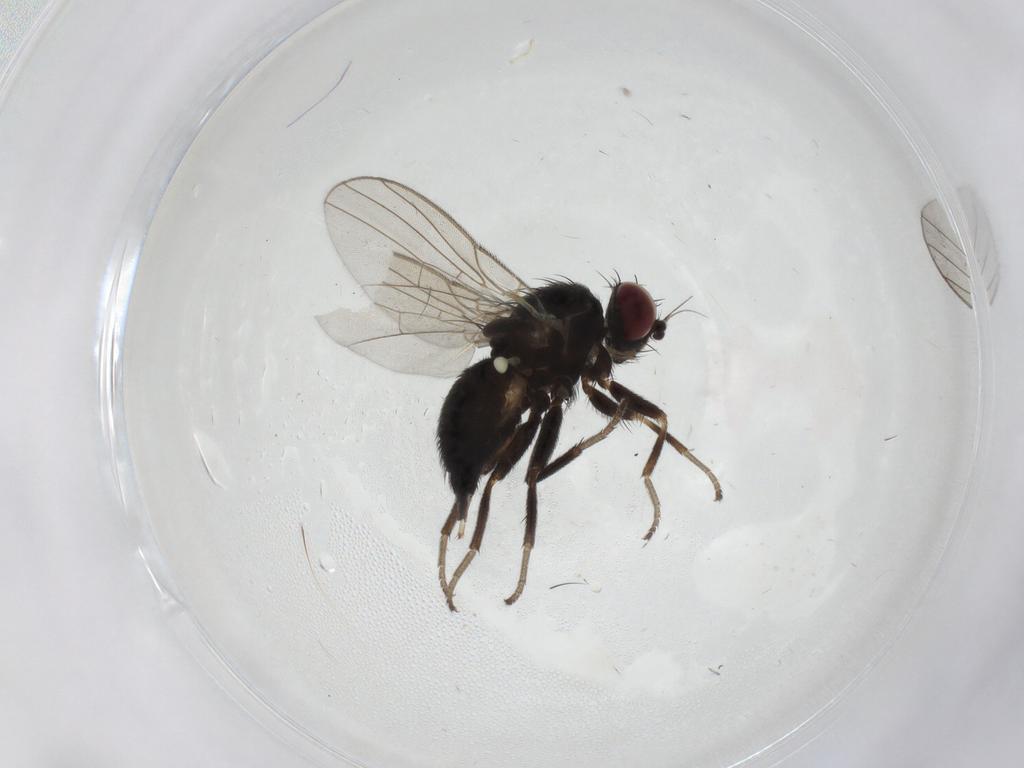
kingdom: Animalia
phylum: Arthropoda
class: Insecta
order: Diptera
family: Agromyzidae
